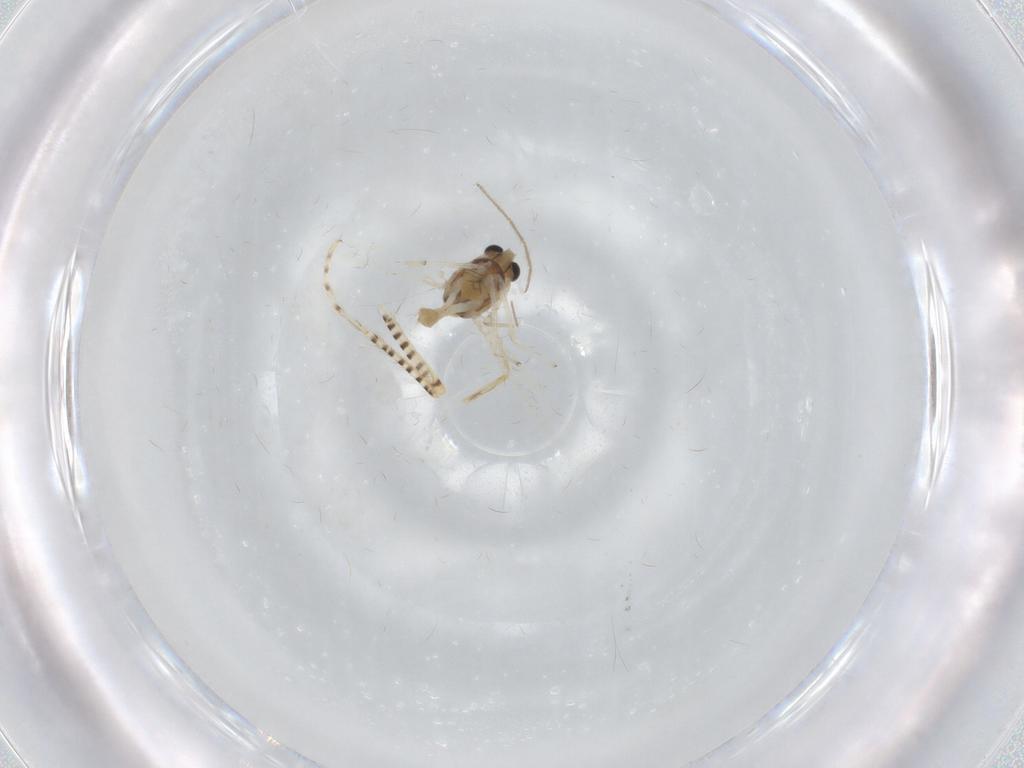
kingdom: Animalia
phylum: Arthropoda
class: Insecta
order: Diptera
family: Chironomidae
